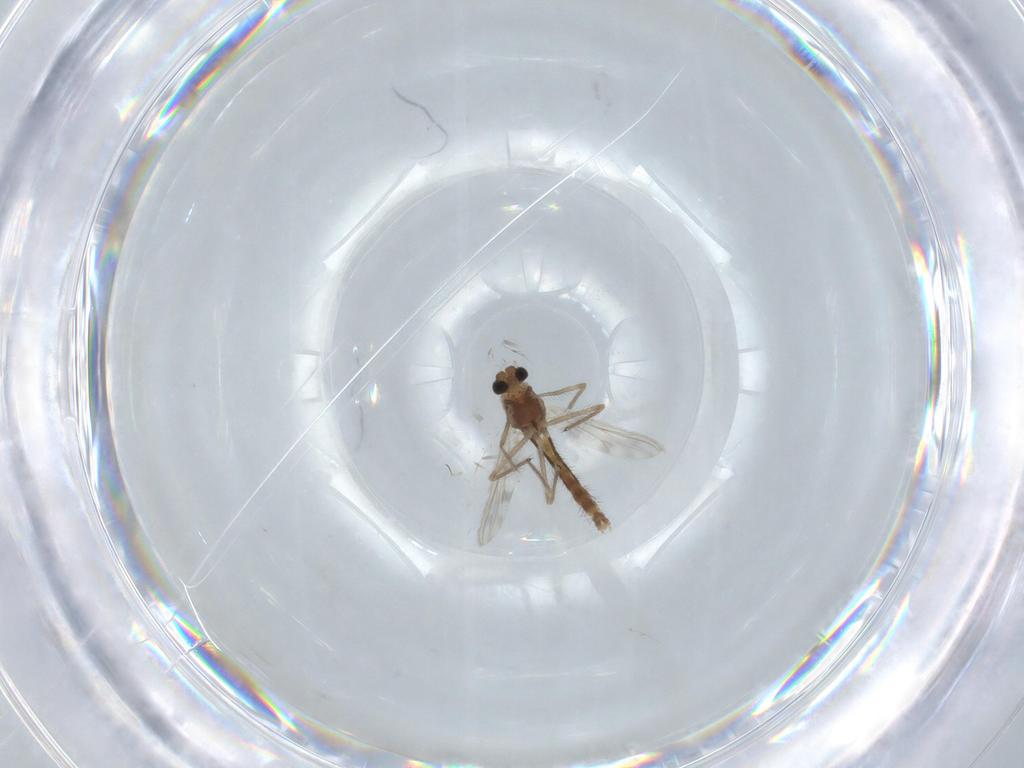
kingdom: Animalia
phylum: Arthropoda
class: Insecta
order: Diptera
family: Chironomidae
